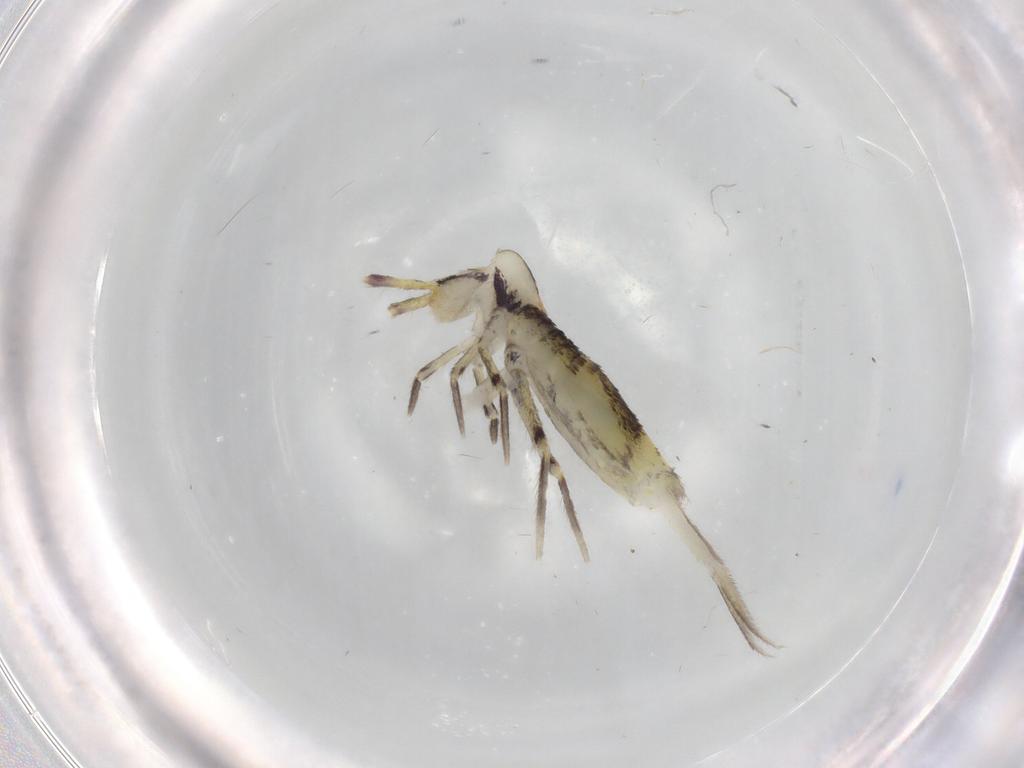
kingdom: Animalia
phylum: Arthropoda
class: Collembola
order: Entomobryomorpha
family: Entomobryidae
